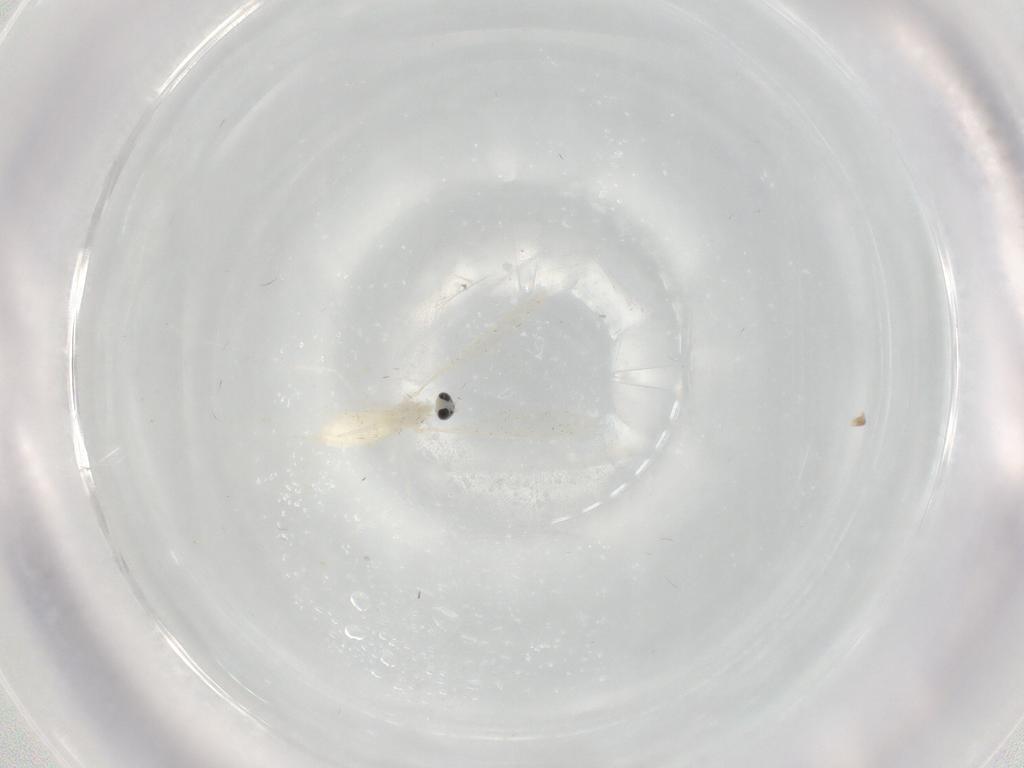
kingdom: Animalia
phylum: Arthropoda
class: Insecta
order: Diptera
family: Cecidomyiidae
